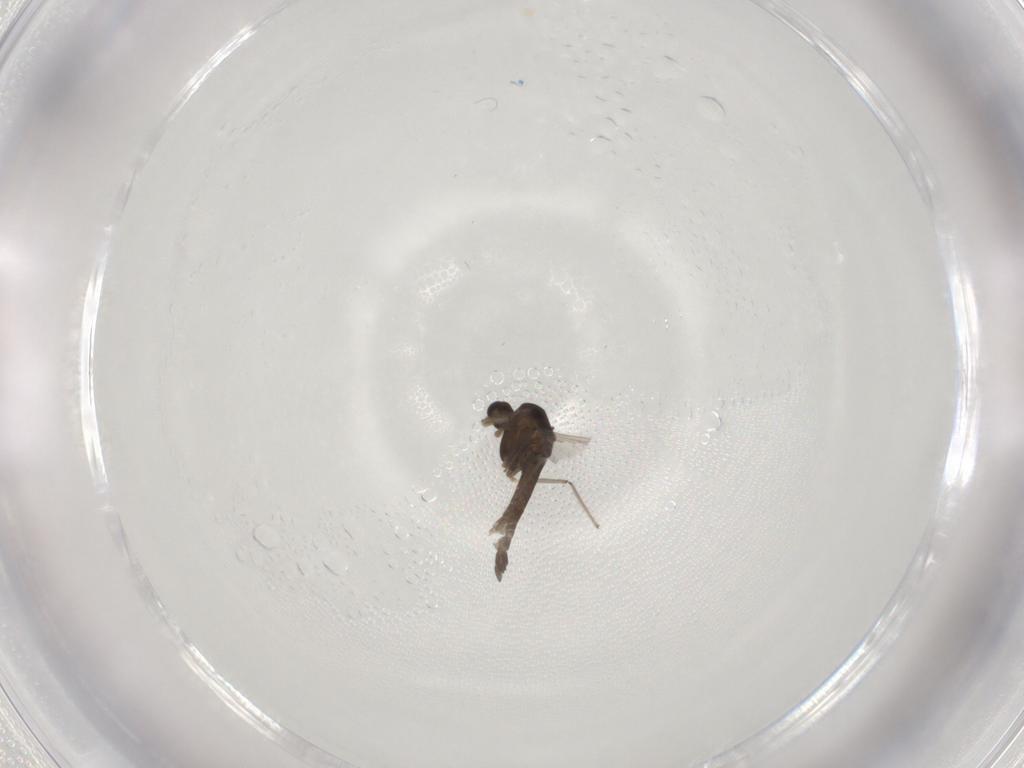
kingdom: Animalia
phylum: Arthropoda
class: Insecta
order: Diptera
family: Chironomidae
